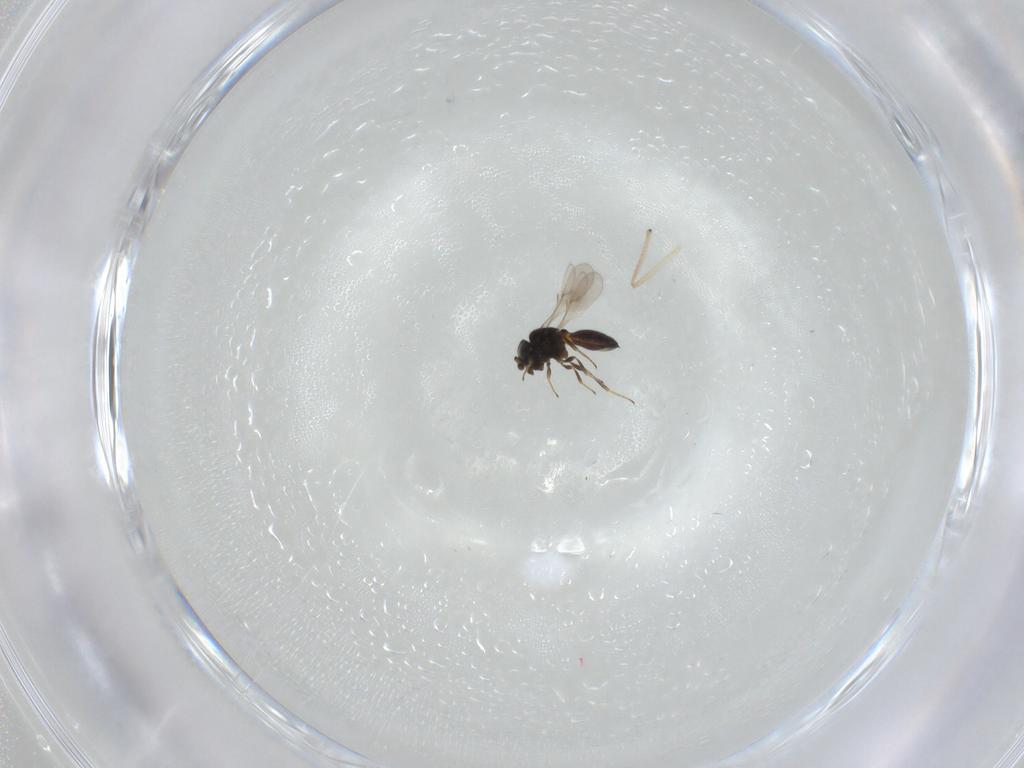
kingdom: Animalia
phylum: Arthropoda
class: Insecta
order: Hymenoptera
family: Scelionidae
